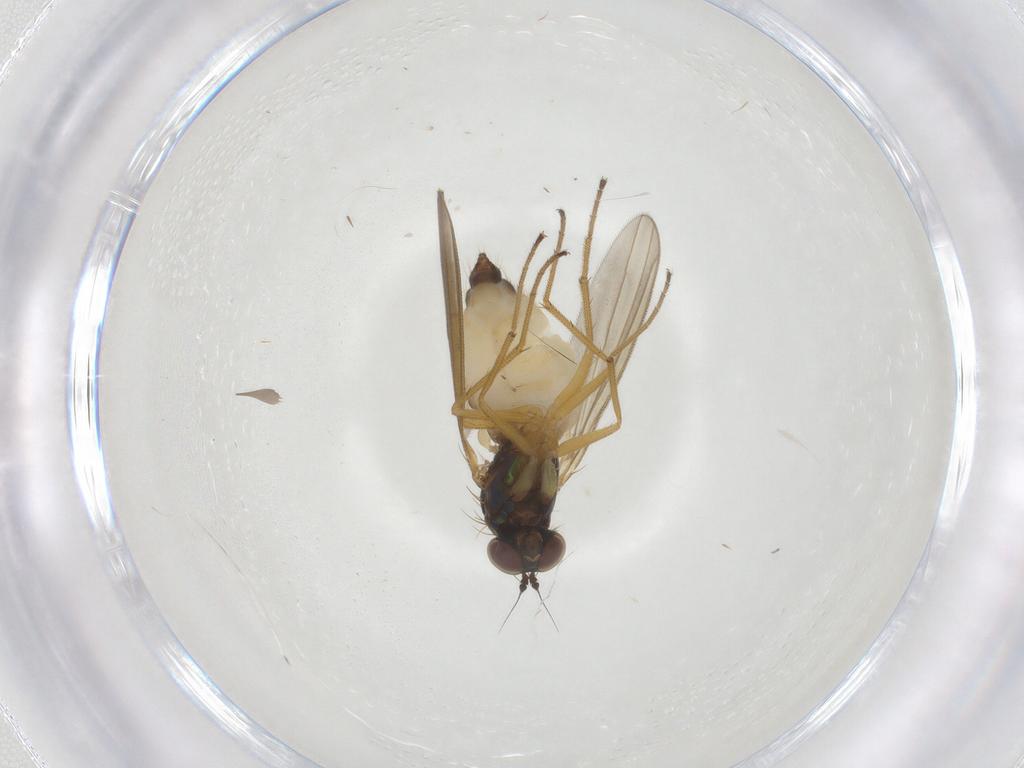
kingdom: Animalia
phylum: Arthropoda
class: Insecta
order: Diptera
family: Dolichopodidae
